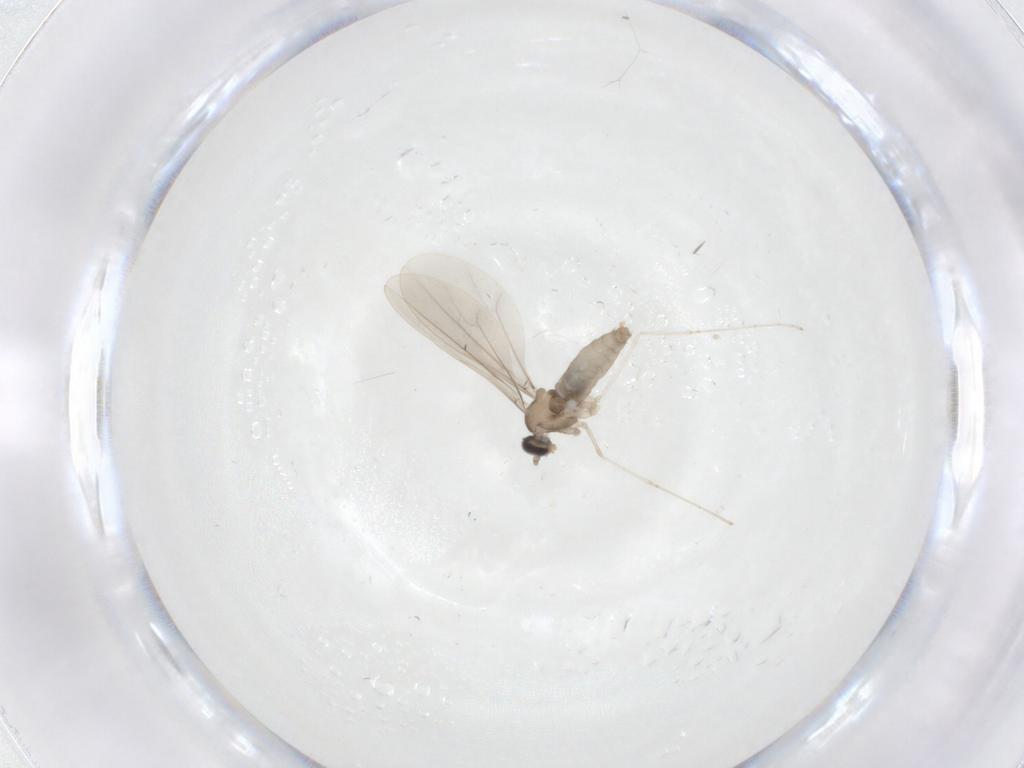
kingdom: Animalia
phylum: Arthropoda
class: Insecta
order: Diptera
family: Cecidomyiidae
